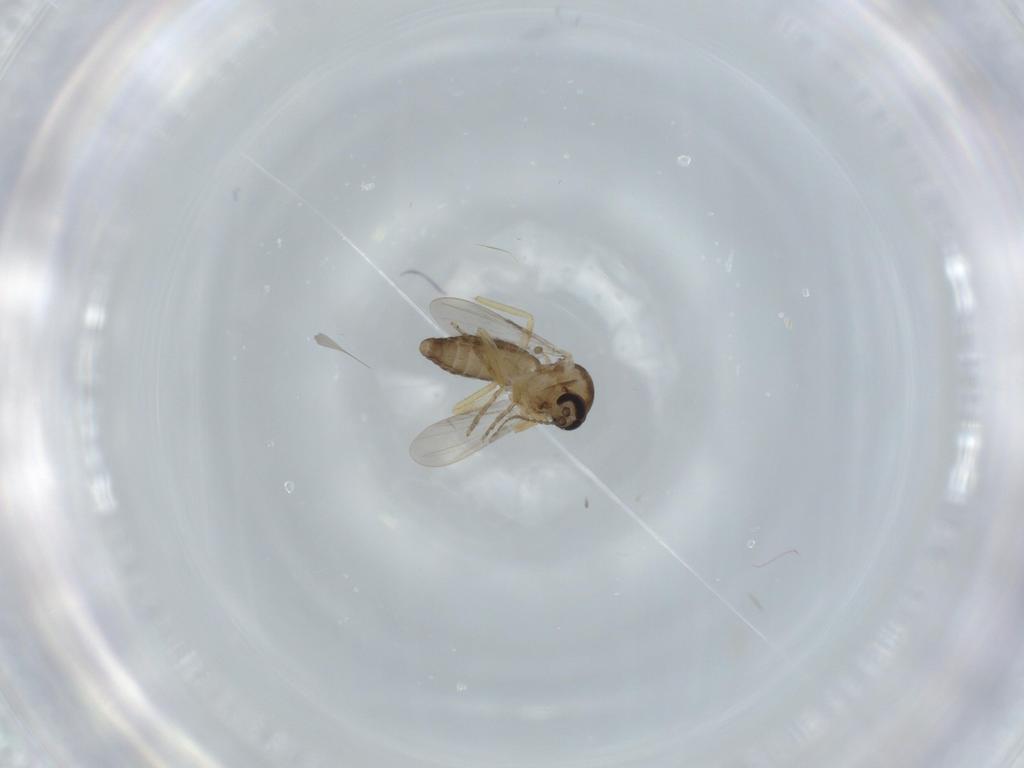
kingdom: Animalia
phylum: Arthropoda
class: Insecta
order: Diptera
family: Ceratopogonidae
